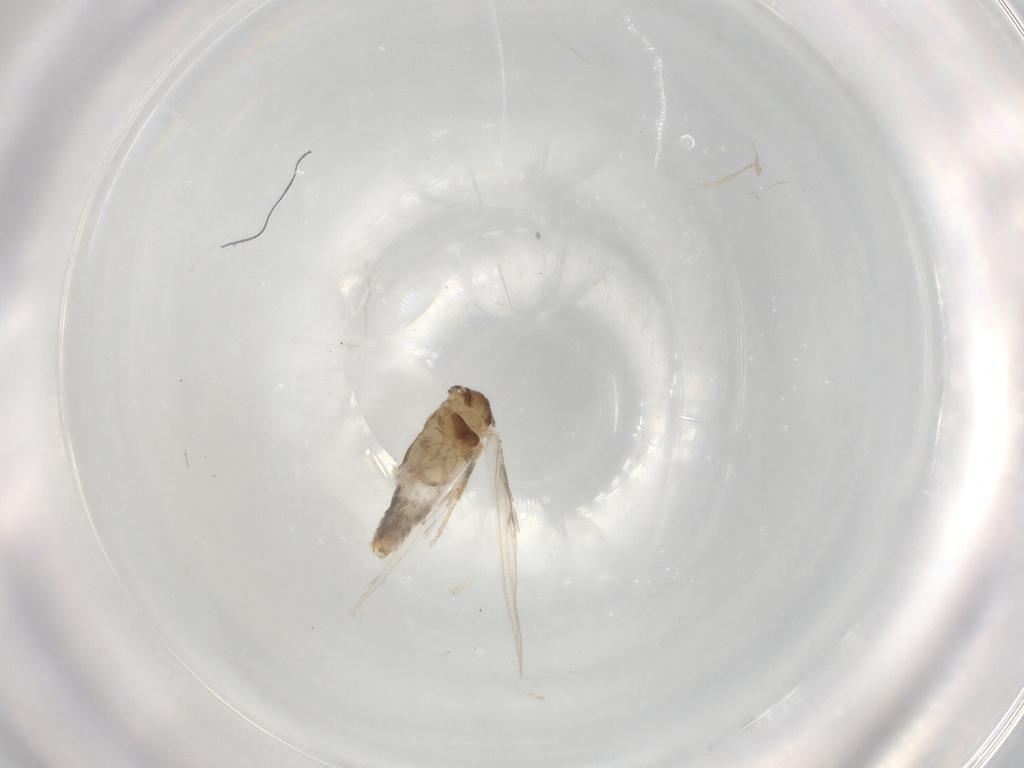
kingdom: Animalia
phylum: Arthropoda
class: Insecta
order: Lepidoptera
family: Nepticulidae
